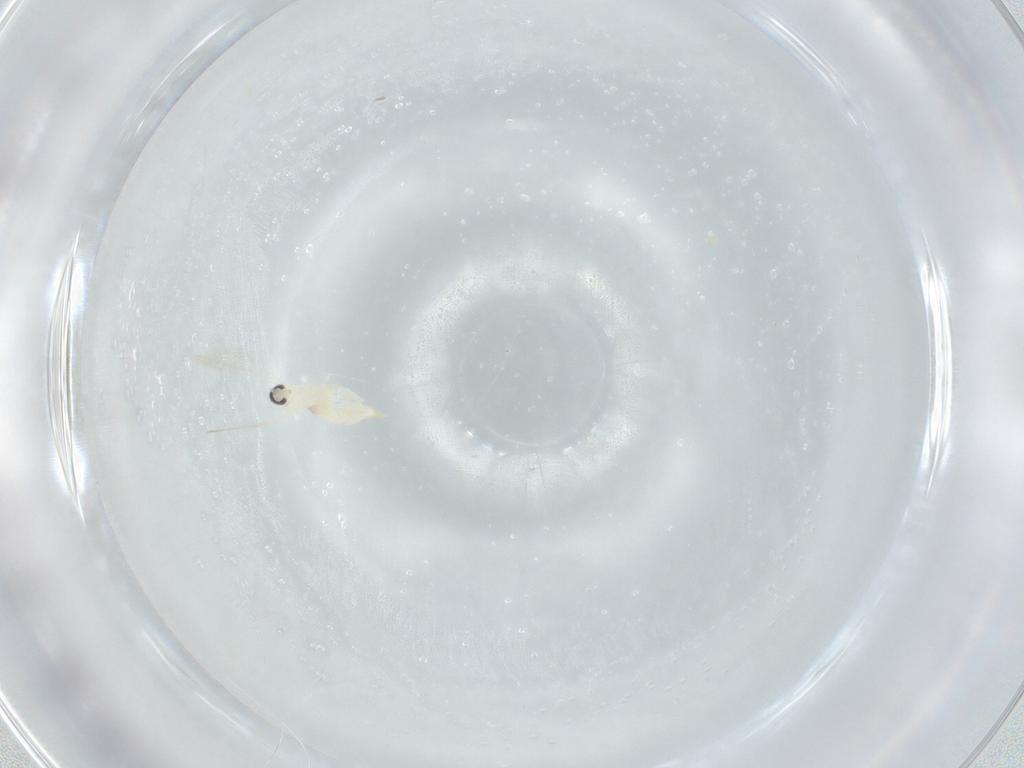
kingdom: Animalia
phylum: Arthropoda
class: Insecta
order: Diptera
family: Cecidomyiidae
